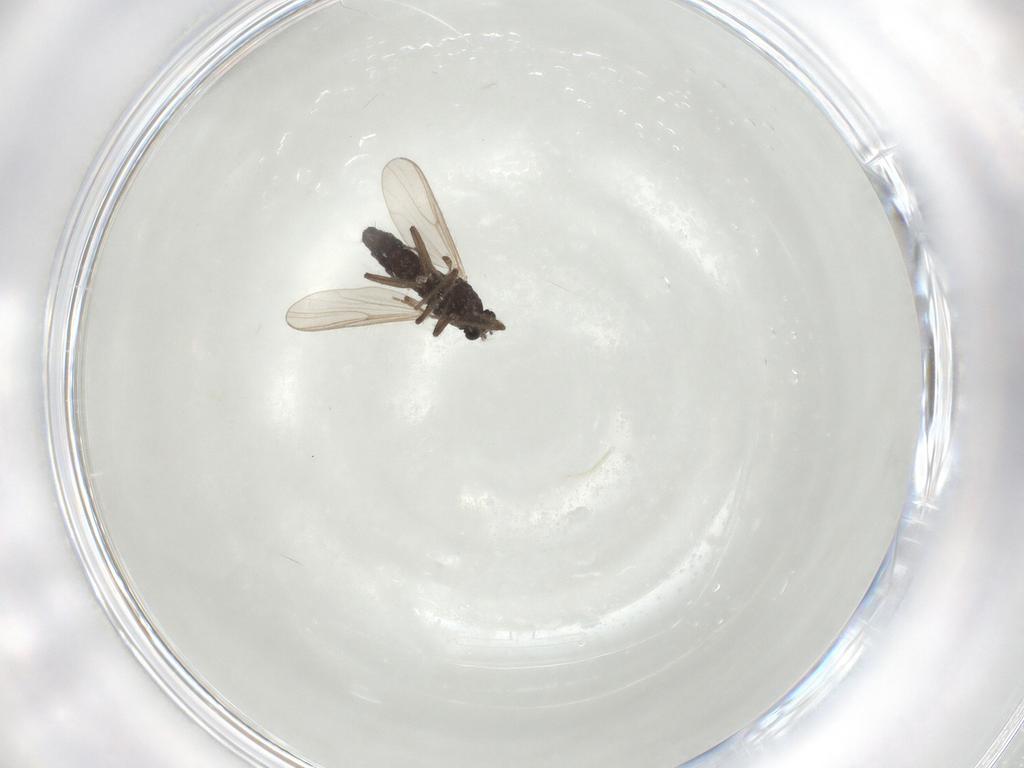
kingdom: Animalia
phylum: Arthropoda
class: Insecta
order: Diptera
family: Chironomidae
